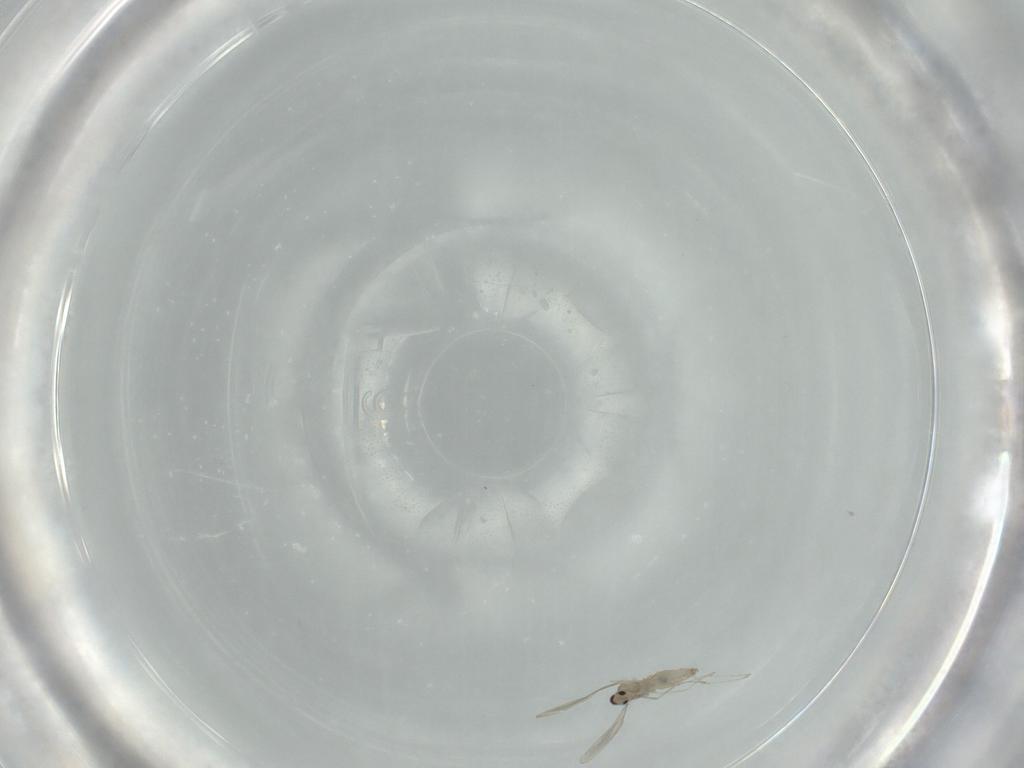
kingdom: Animalia
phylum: Arthropoda
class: Insecta
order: Diptera
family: Cecidomyiidae
